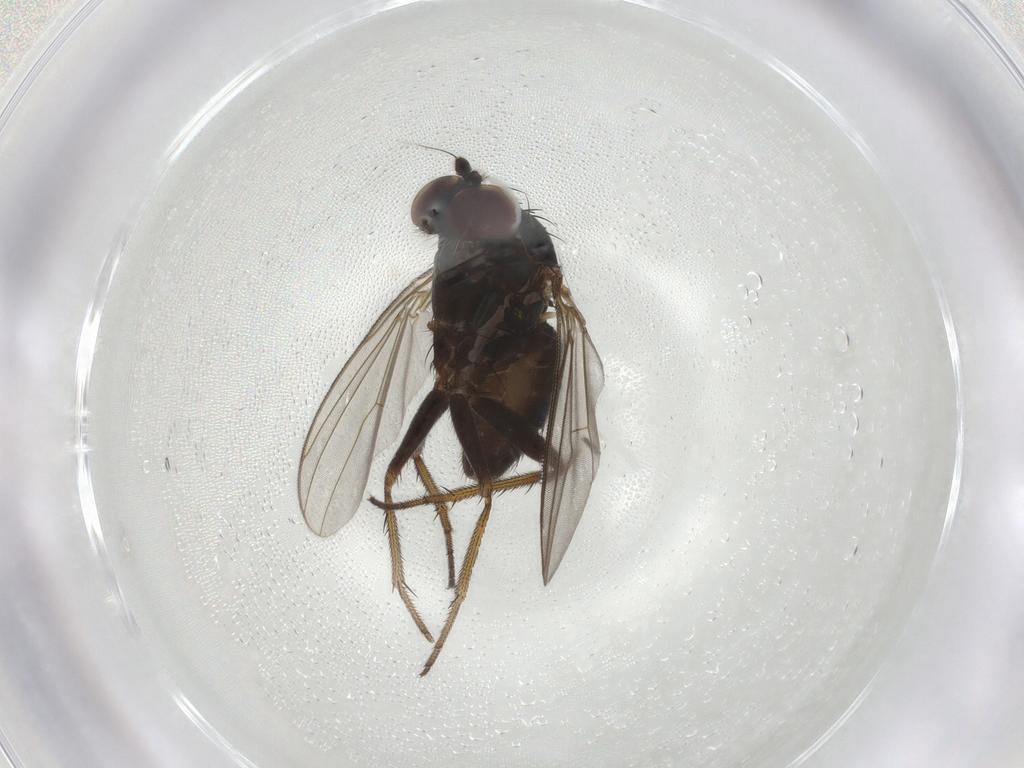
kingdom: Animalia
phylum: Arthropoda
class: Insecta
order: Diptera
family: Dolichopodidae
